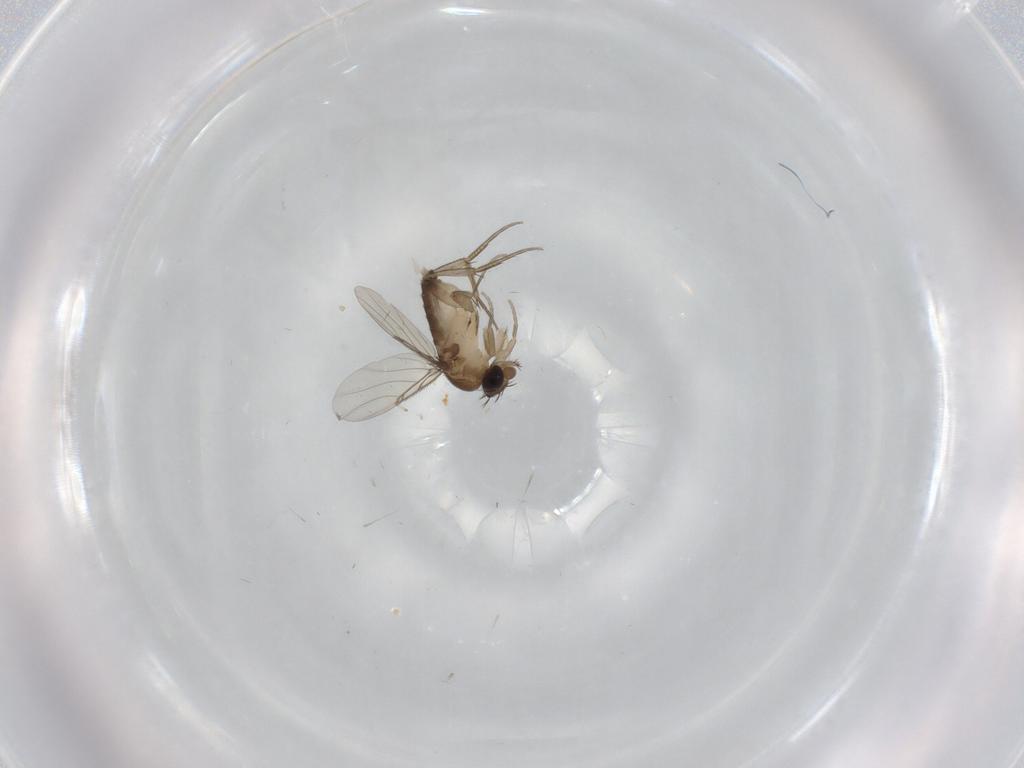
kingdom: Animalia
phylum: Arthropoda
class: Insecta
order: Diptera
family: Phoridae
